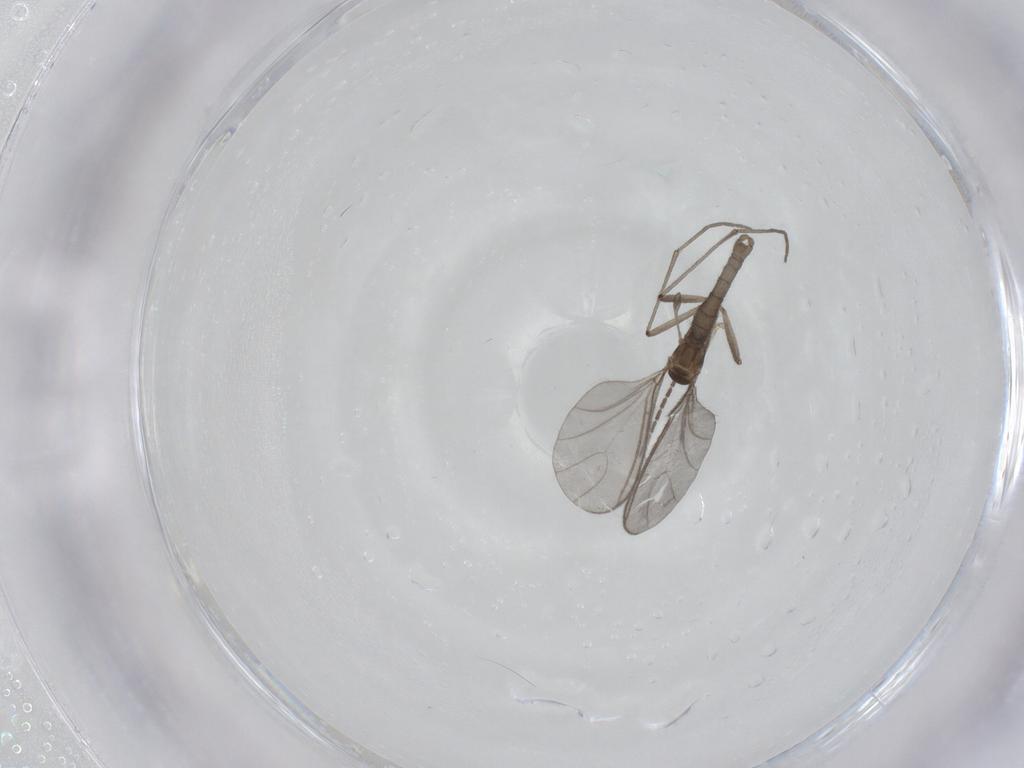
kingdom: Animalia
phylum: Arthropoda
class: Insecta
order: Diptera
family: Sciaridae
